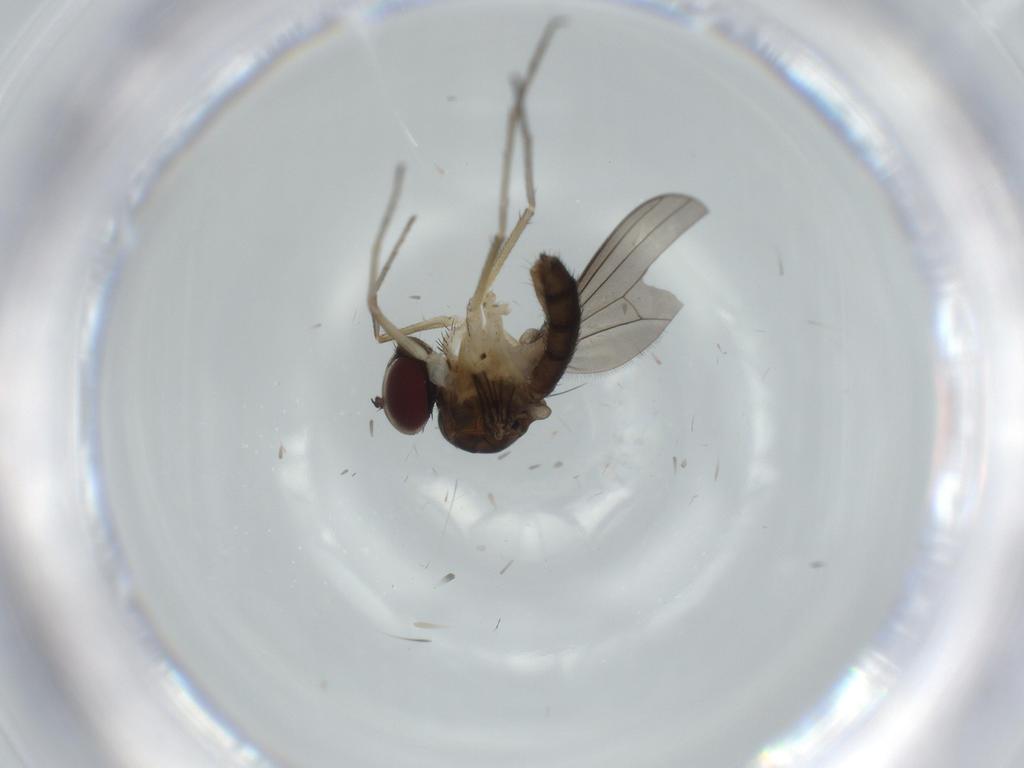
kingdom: Animalia
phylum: Arthropoda
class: Insecta
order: Diptera
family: Dolichopodidae
